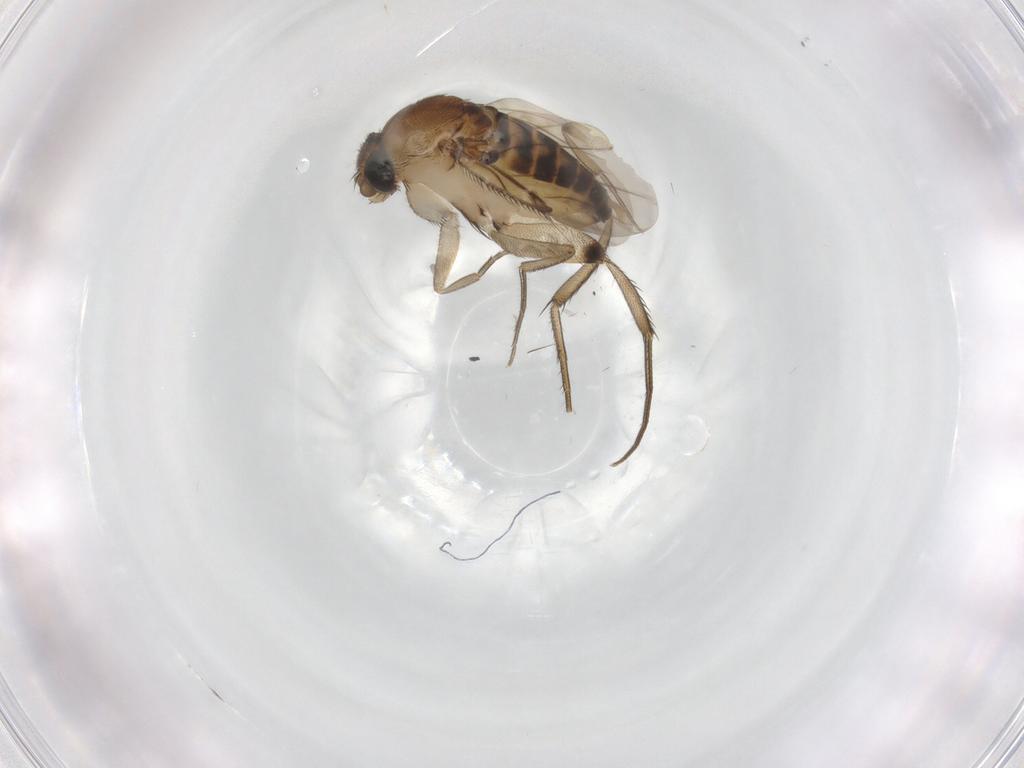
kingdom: Animalia
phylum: Arthropoda
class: Insecta
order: Diptera
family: Phoridae
